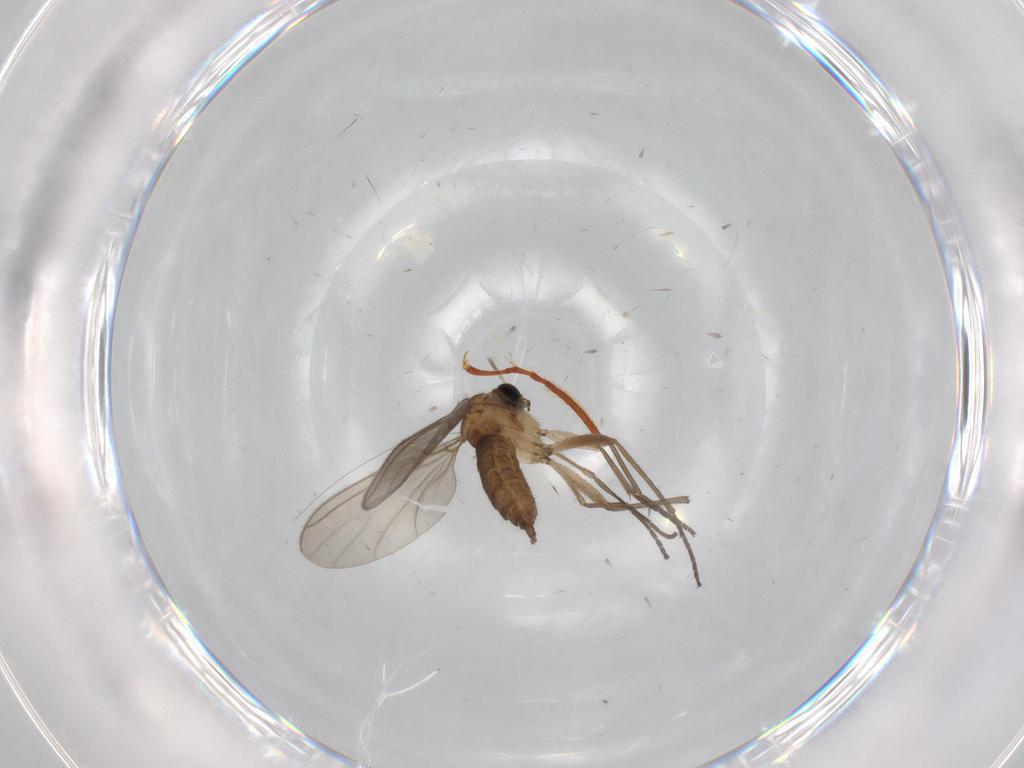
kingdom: Animalia
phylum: Arthropoda
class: Insecta
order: Diptera
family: Sciaridae
